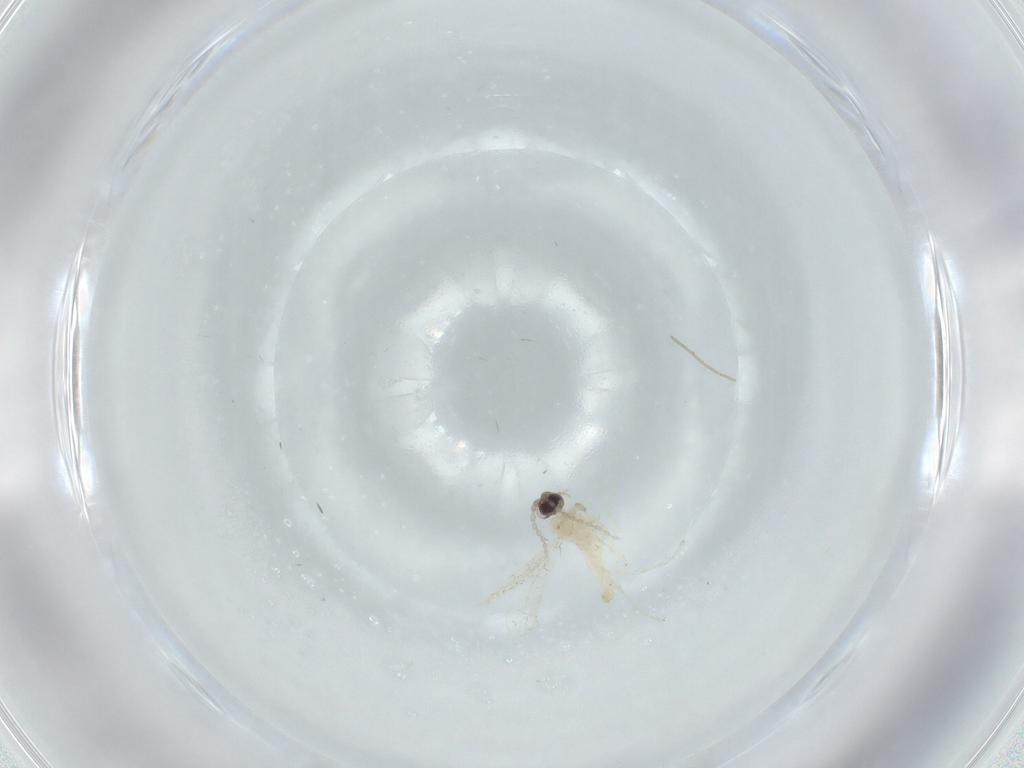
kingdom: Animalia
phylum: Arthropoda
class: Insecta
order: Diptera
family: Cecidomyiidae
